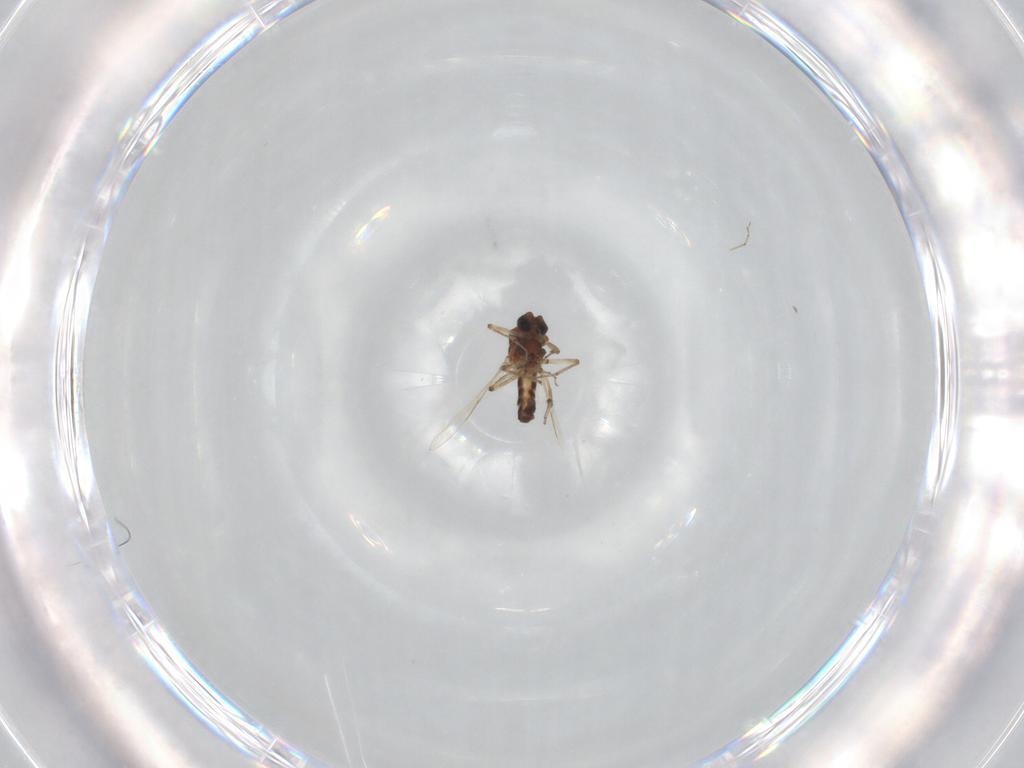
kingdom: Animalia
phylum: Arthropoda
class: Insecta
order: Diptera
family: Ceratopogonidae
